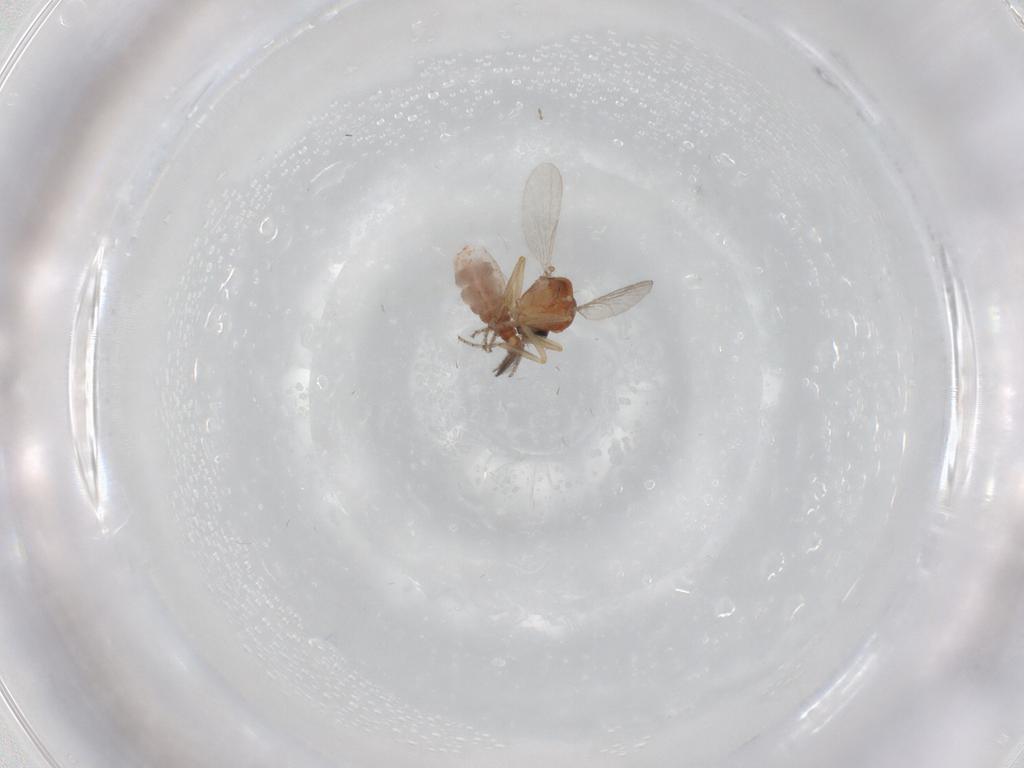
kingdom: Animalia
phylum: Arthropoda
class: Insecta
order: Diptera
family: Ceratopogonidae
